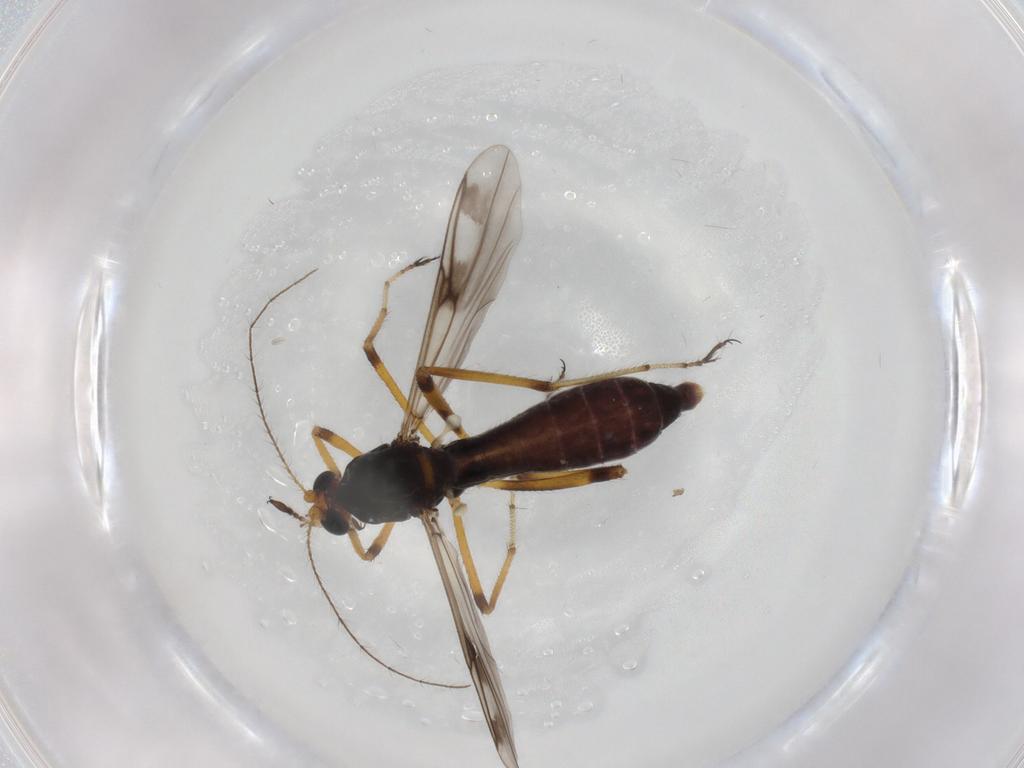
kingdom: Animalia
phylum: Arthropoda
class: Insecta
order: Diptera
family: Ceratopogonidae
